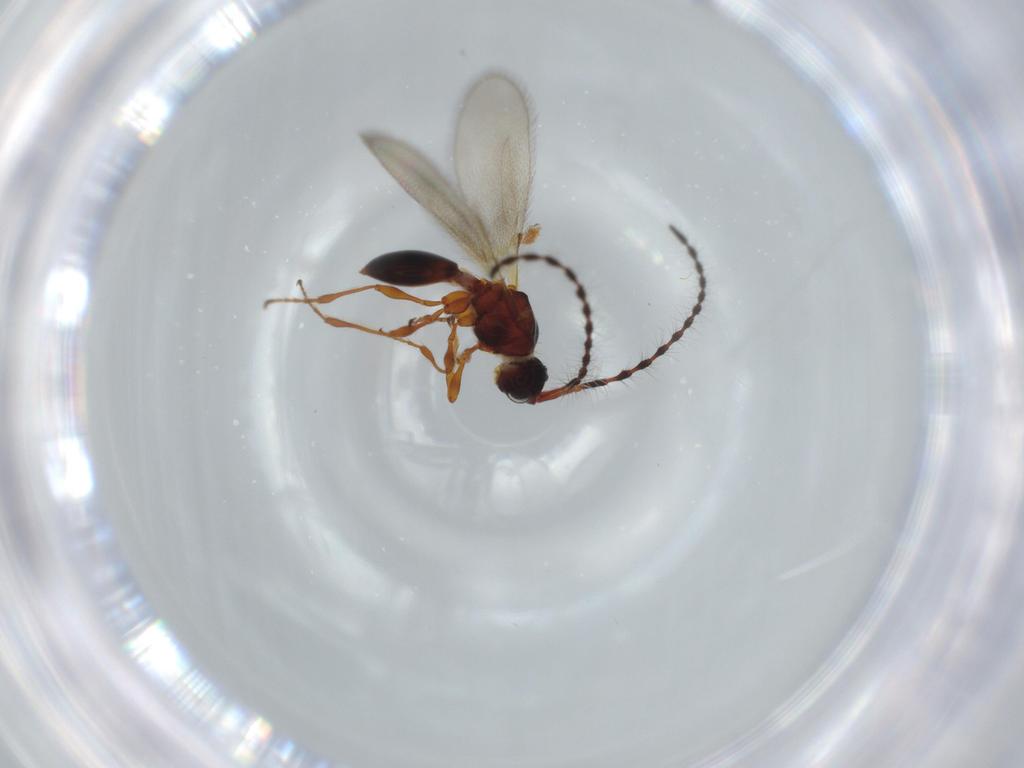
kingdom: Animalia
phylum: Arthropoda
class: Insecta
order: Hymenoptera
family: Diapriidae
